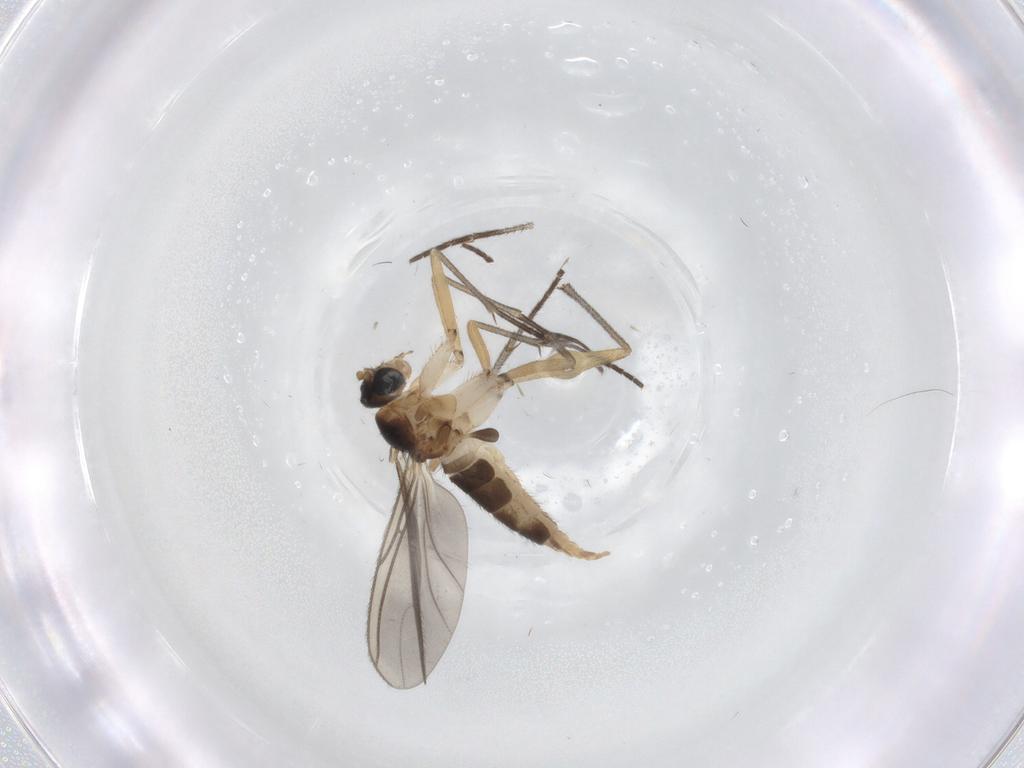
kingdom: Animalia
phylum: Arthropoda
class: Insecta
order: Diptera
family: Sciaridae
